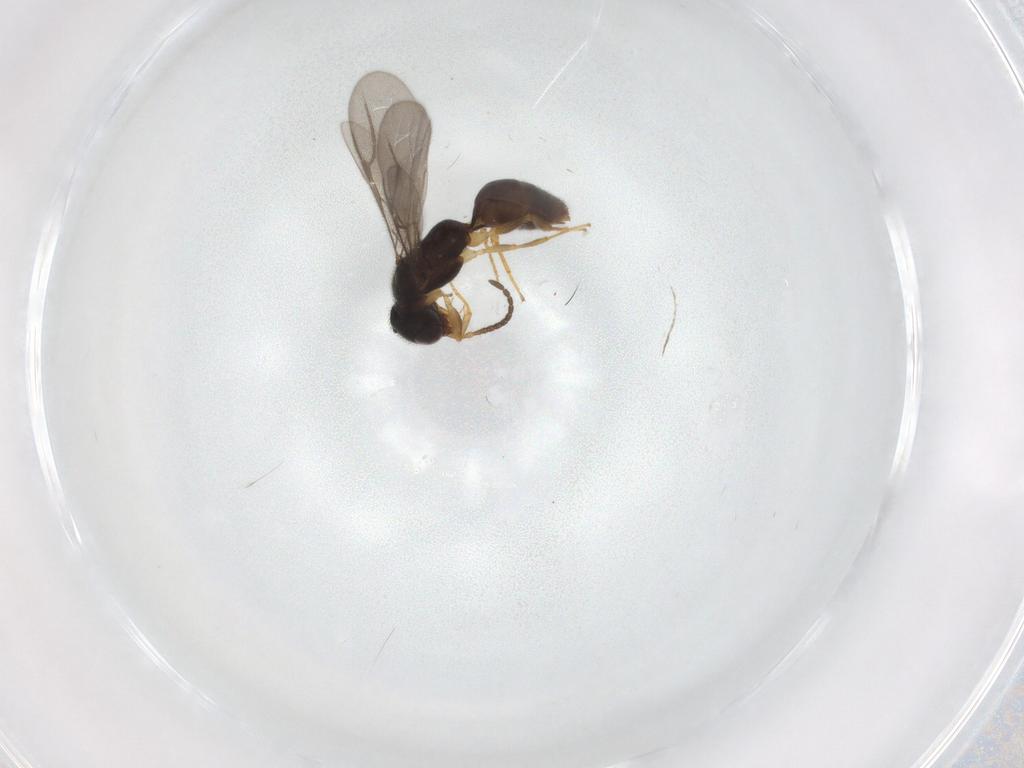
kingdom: Animalia
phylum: Arthropoda
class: Insecta
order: Hymenoptera
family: Bethylidae
